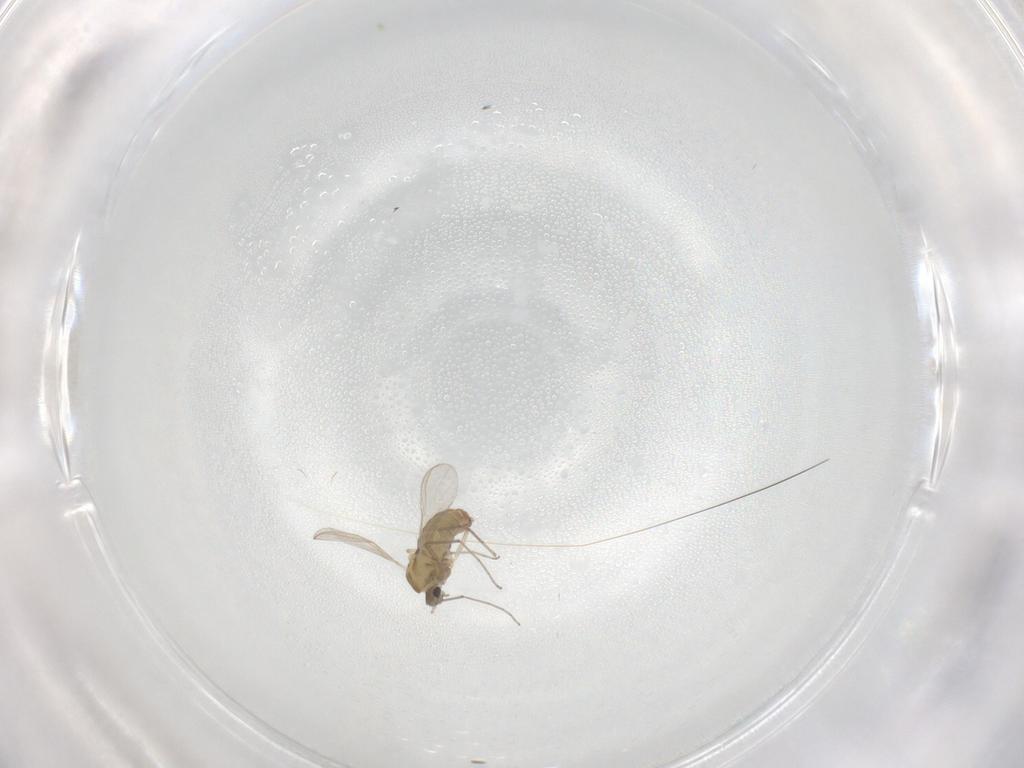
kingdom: Animalia
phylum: Arthropoda
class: Insecta
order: Diptera
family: Chironomidae
